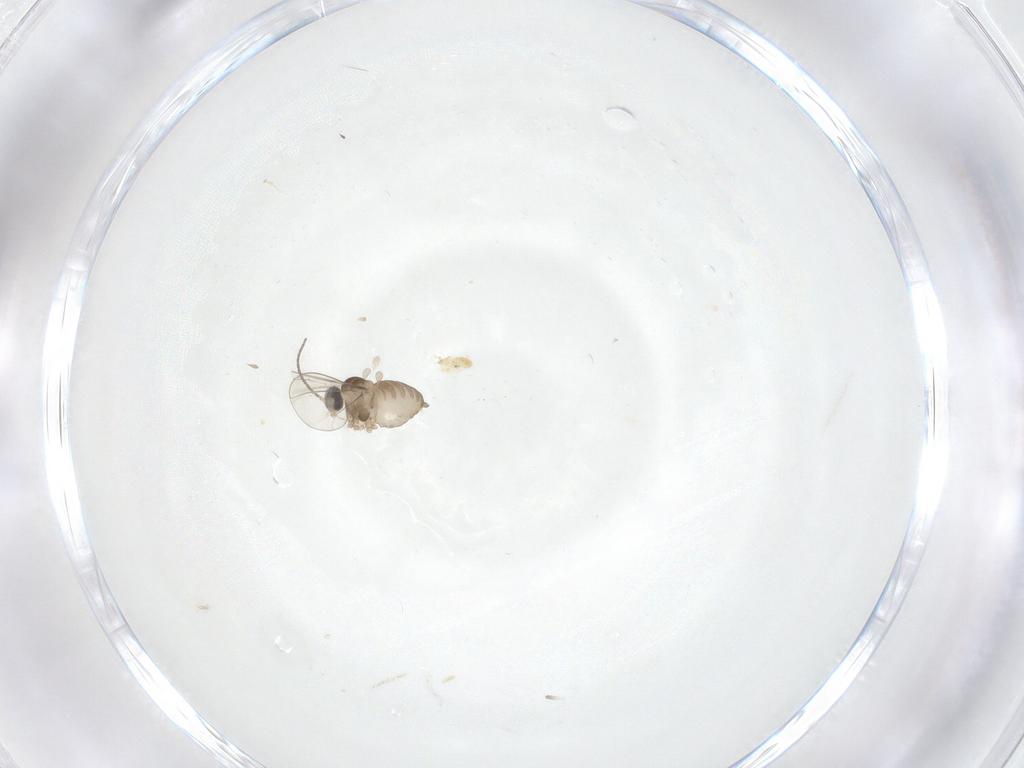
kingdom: Animalia
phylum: Arthropoda
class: Insecta
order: Diptera
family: Cecidomyiidae
